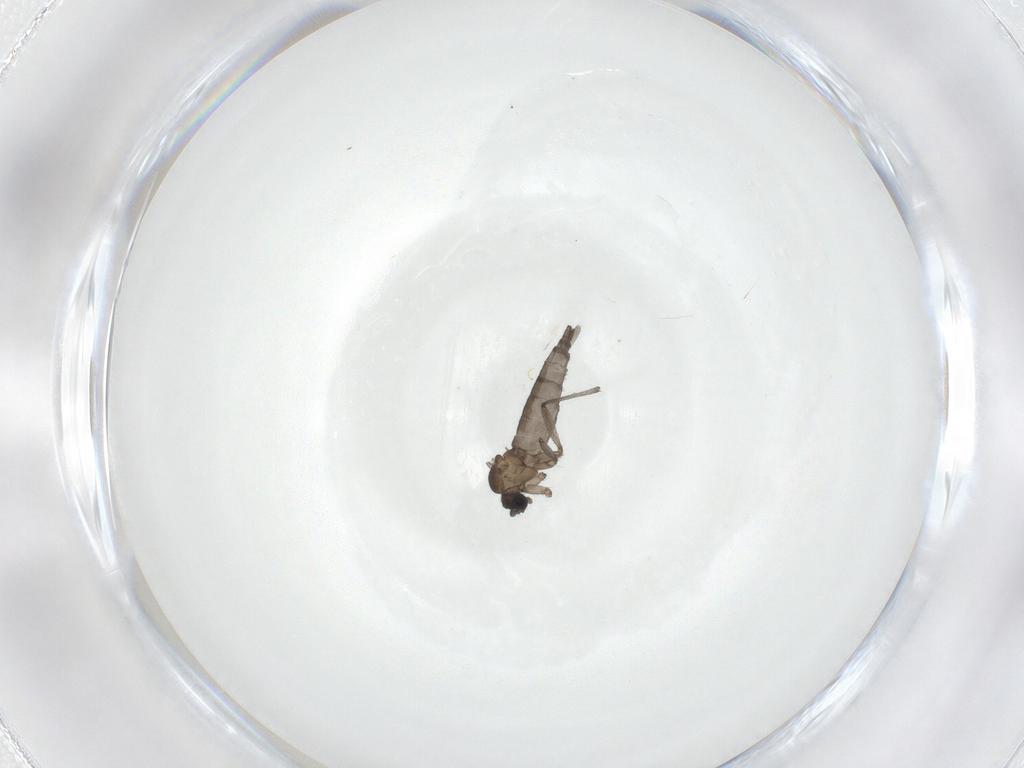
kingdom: Animalia
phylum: Arthropoda
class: Insecta
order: Diptera
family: Sciaridae
